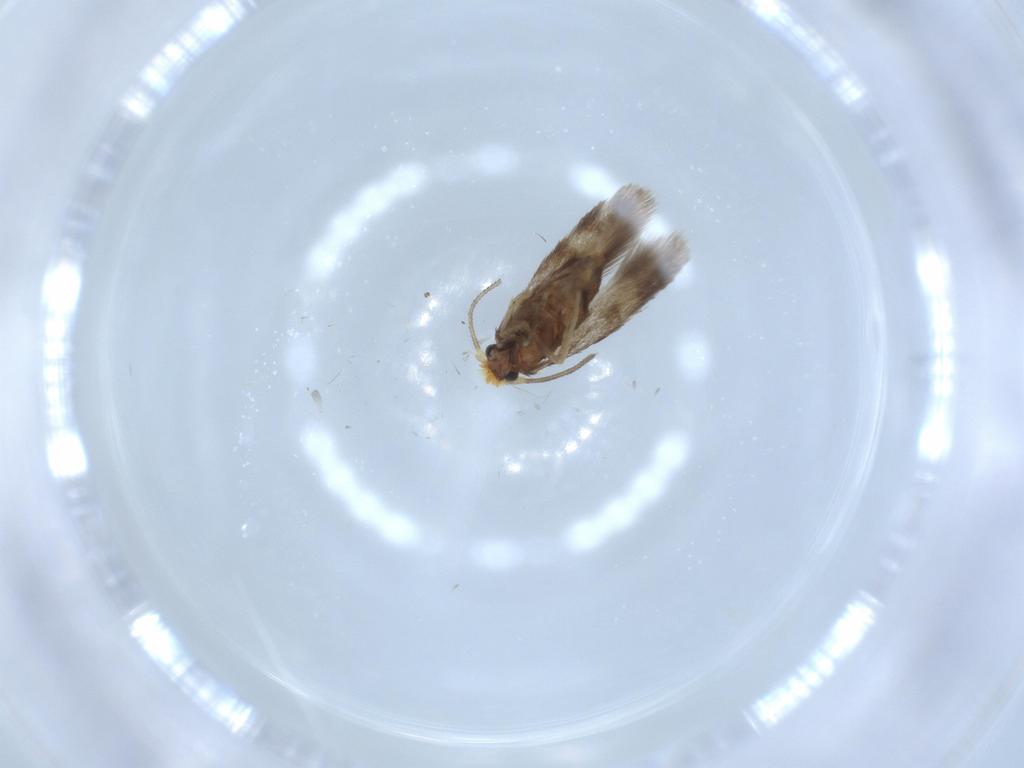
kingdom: Animalia
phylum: Arthropoda
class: Insecta
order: Lepidoptera
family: Nepticulidae
